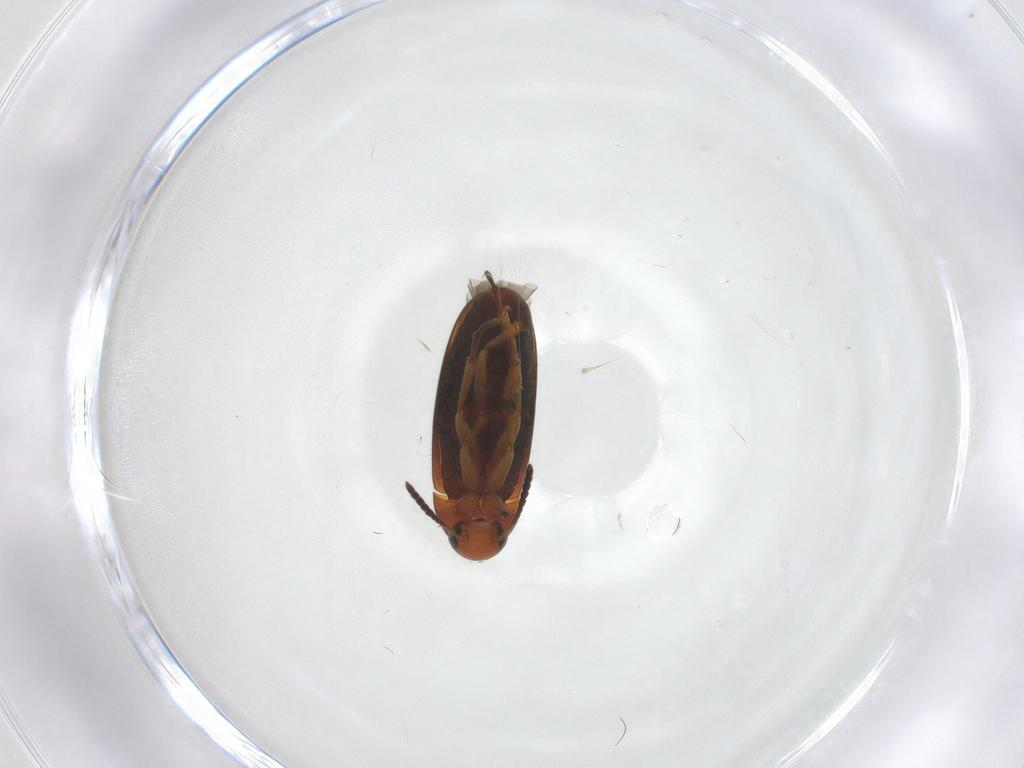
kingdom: Animalia
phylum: Arthropoda
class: Insecta
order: Coleoptera
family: Scraptiidae
